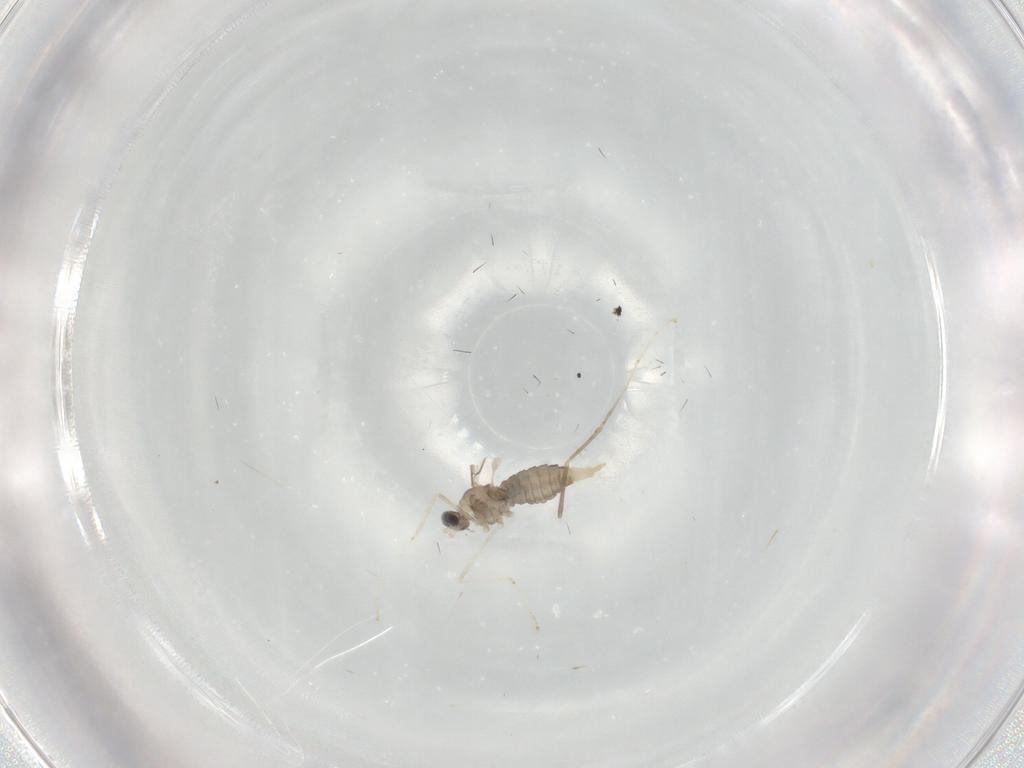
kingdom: Animalia
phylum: Arthropoda
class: Insecta
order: Diptera
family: Cecidomyiidae
